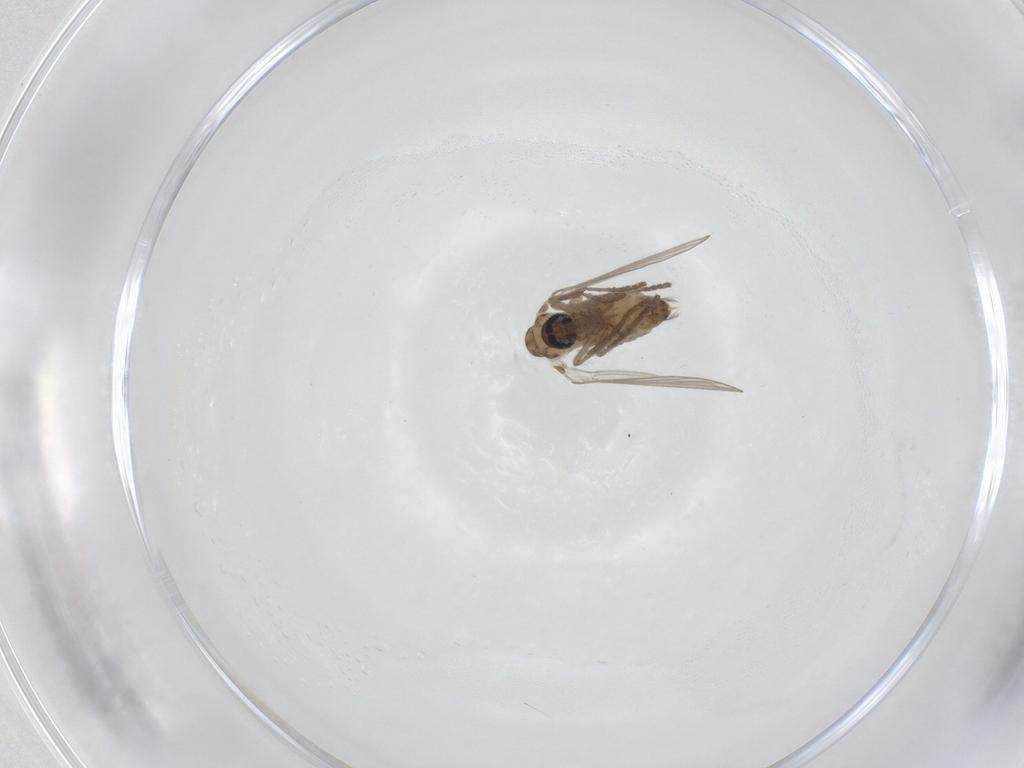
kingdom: Animalia
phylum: Arthropoda
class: Insecta
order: Diptera
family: Psychodidae
